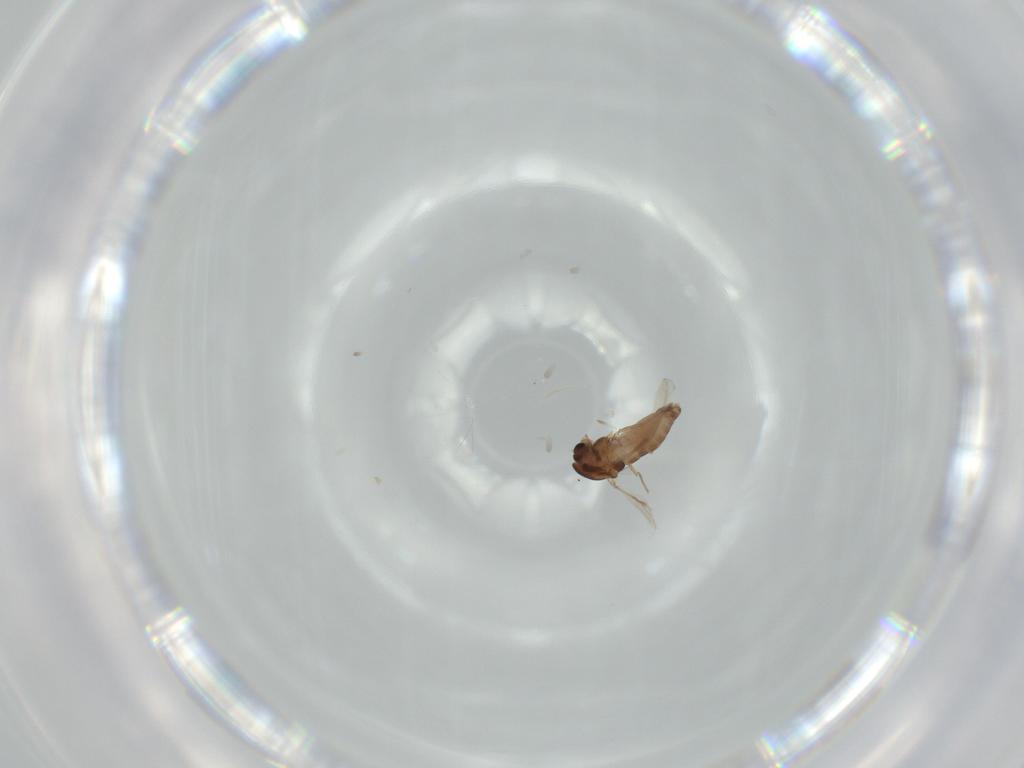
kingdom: Animalia
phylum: Arthropoda
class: Insecta
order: Diptera
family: Chironomidae
